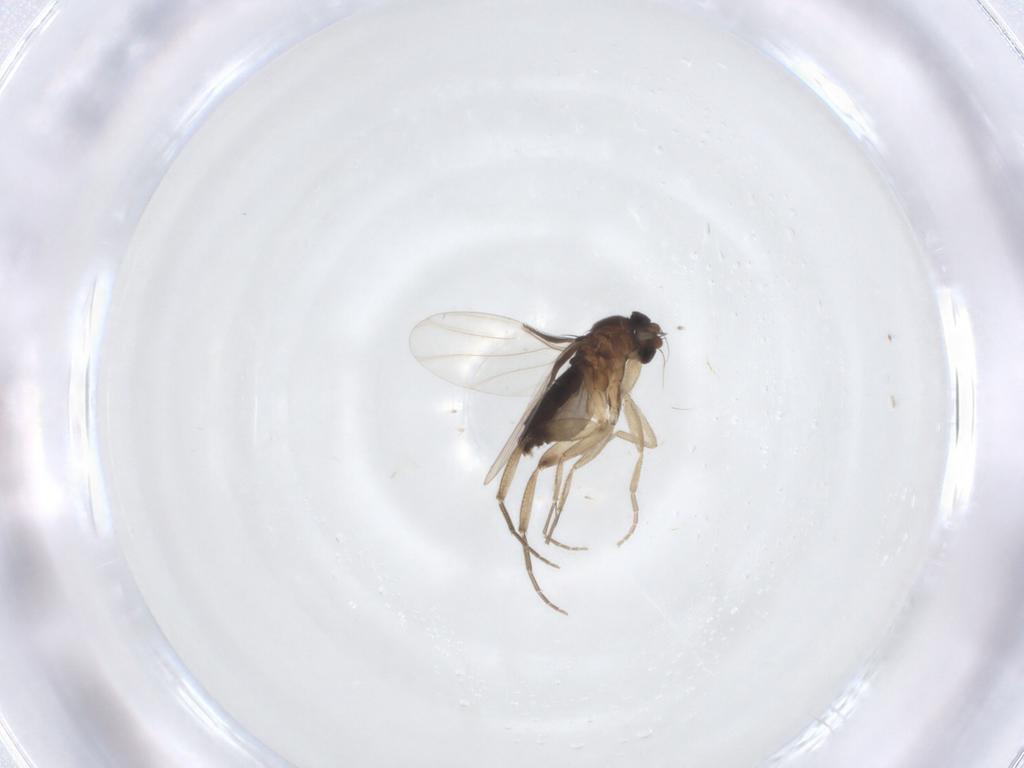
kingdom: Animalia
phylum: Arthropoda
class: Insecta
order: Diptera
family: Phoridae
